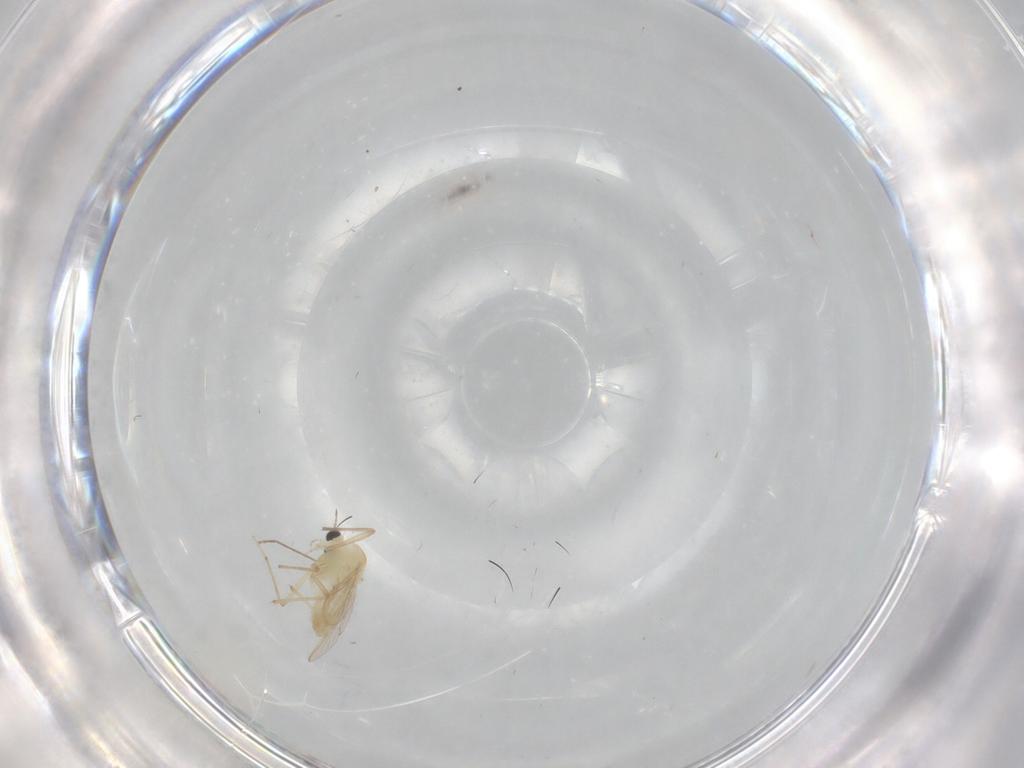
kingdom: Animalia
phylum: Arthropoda
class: Insecta
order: Diptera
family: Chironomidae
